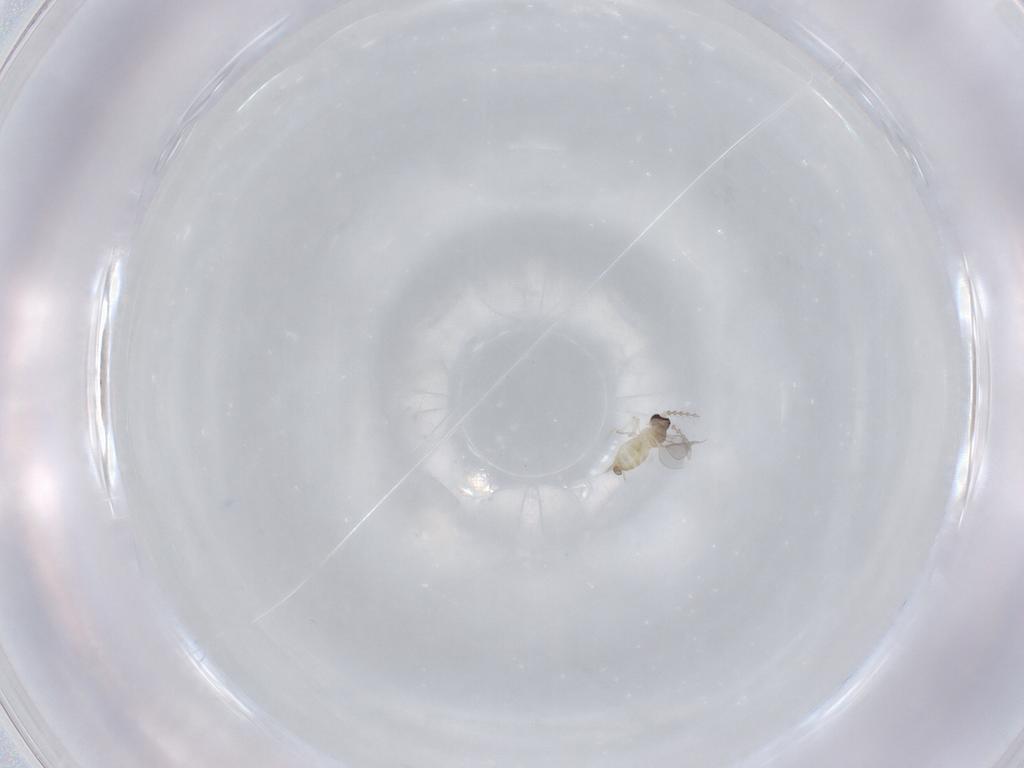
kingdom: Animalia
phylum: Arthropoda
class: Insecta
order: Diptera
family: Cecidomyiidae
